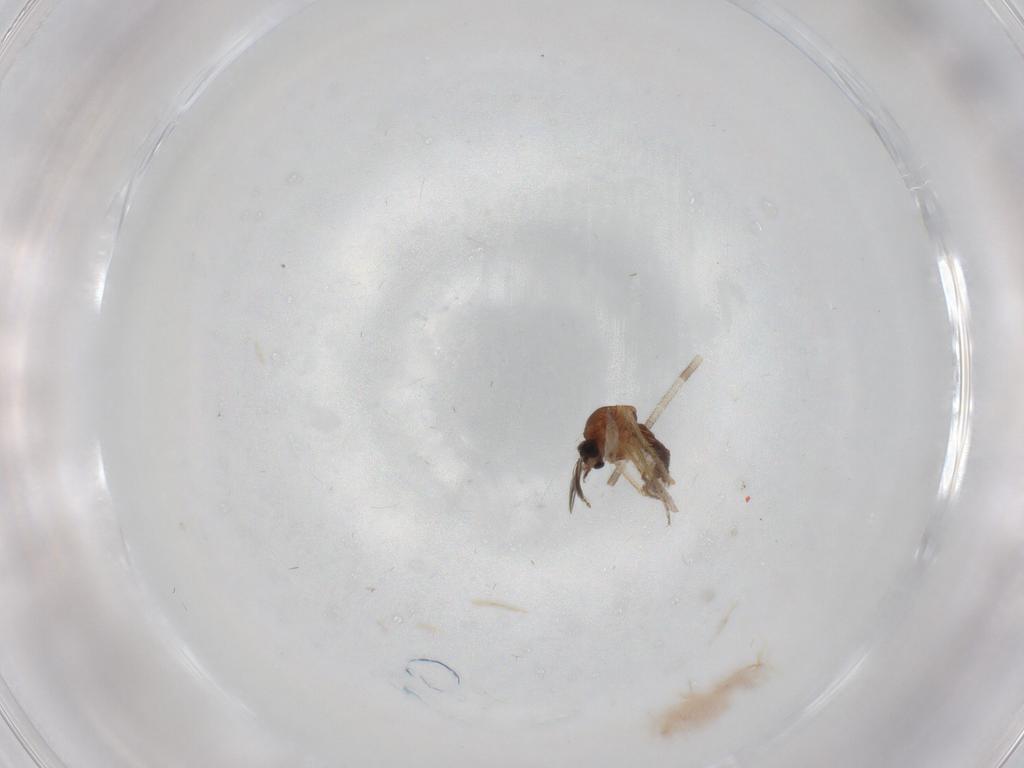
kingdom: Animalia
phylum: Arthropoda
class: Insecta
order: Diptera
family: Ceratopogonidae
